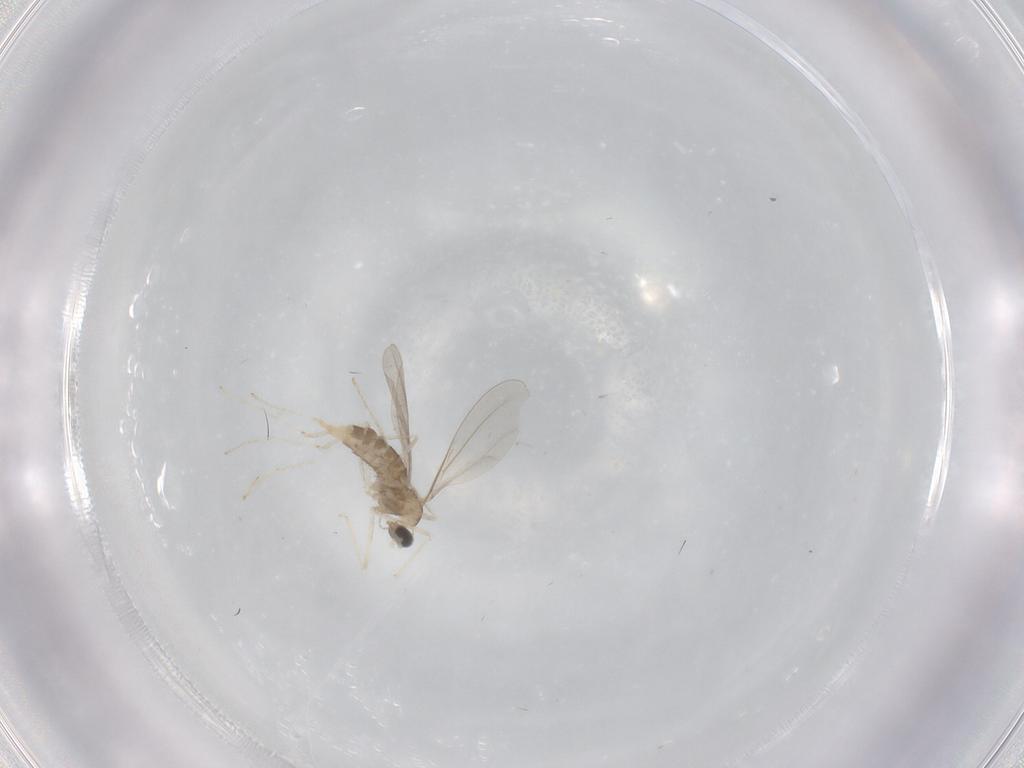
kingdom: Animalia
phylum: Arthropoda
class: Insecta
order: Diptera
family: Cecidomyiidae
